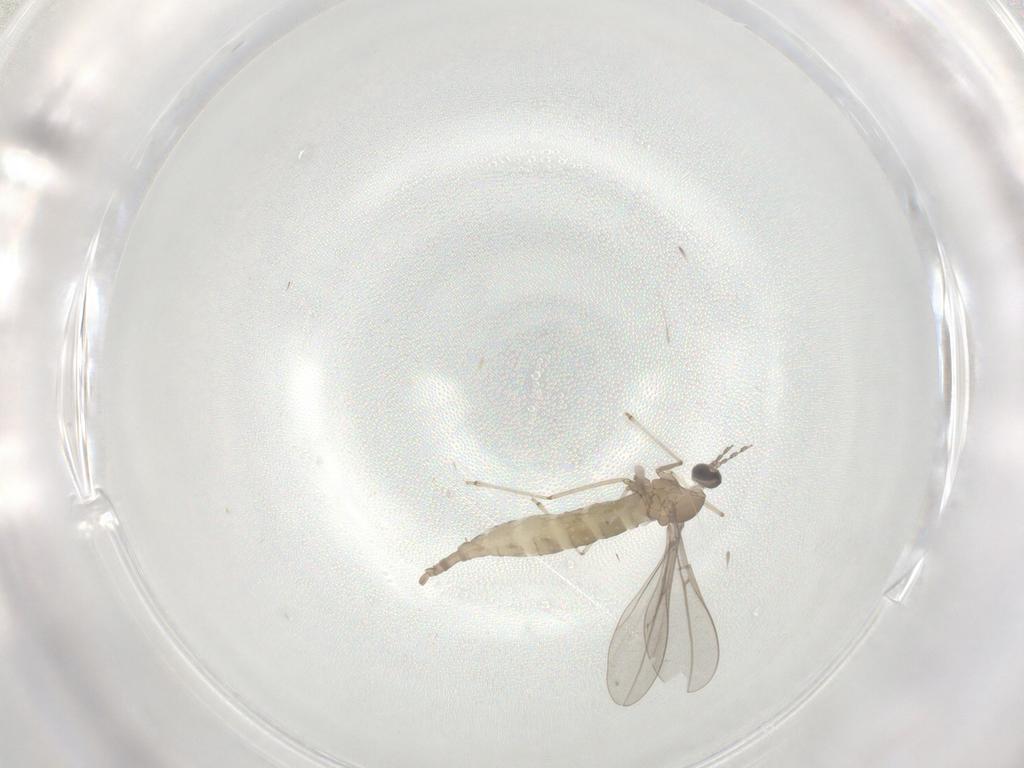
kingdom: Animalia
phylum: Arthropoda
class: Insecta
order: Diptera
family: Cecidomyiidae
